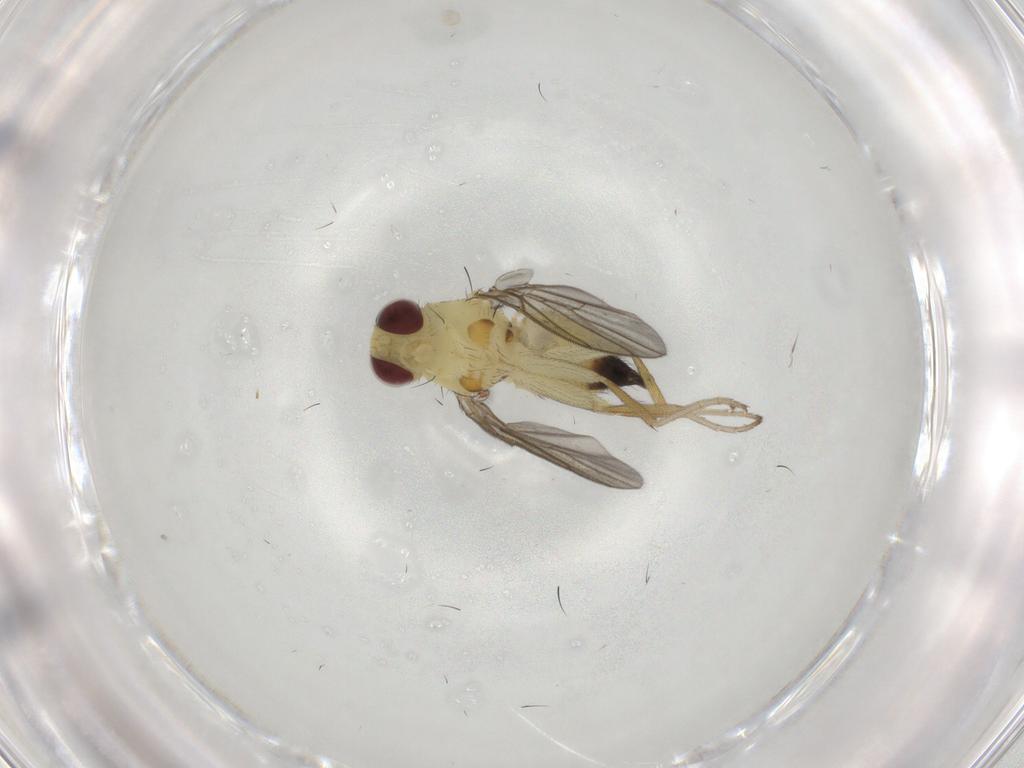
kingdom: Animalia
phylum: Arthropoda
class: Insecta
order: Diptera
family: Agromyzidae
